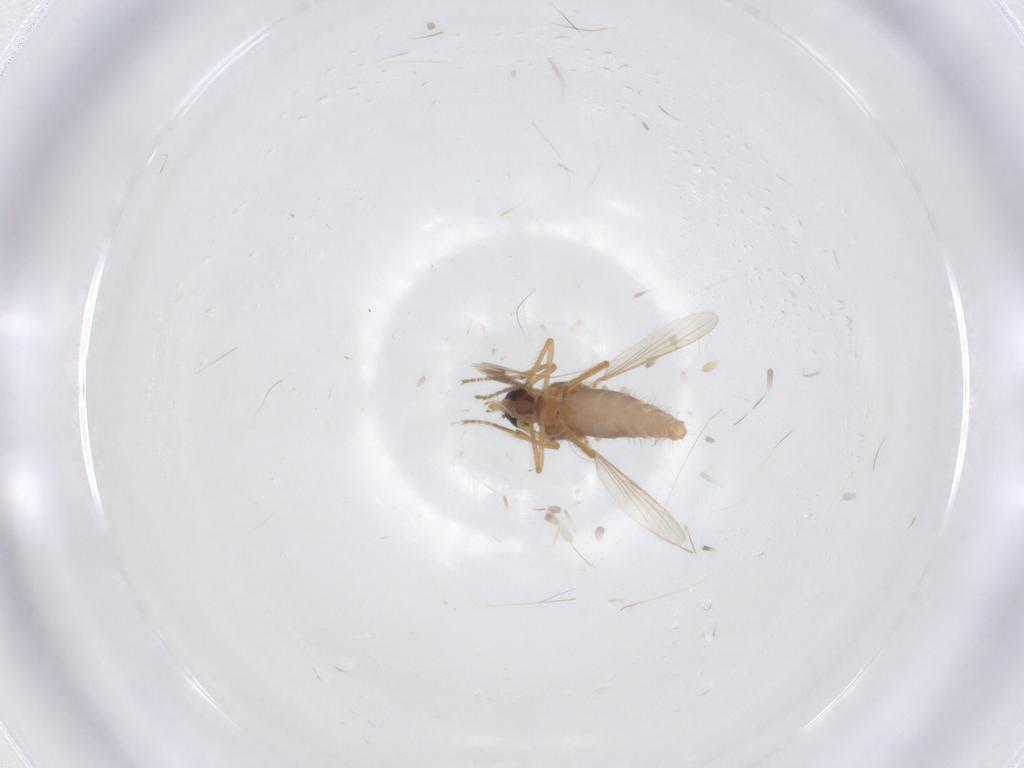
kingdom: Animalia
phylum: Arthropoda
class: Insecta
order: Diptera
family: Ceratopogonidae
